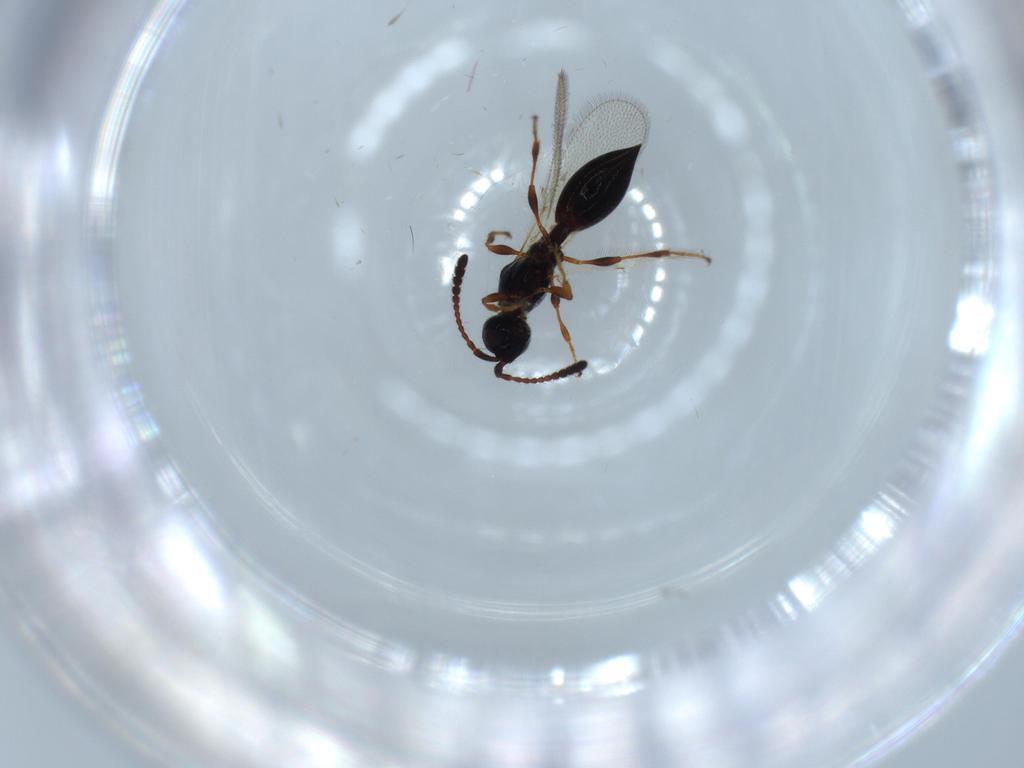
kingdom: Animalia
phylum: Arthropoda
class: Insecta
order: Hymenoptera
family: Diapriidae
